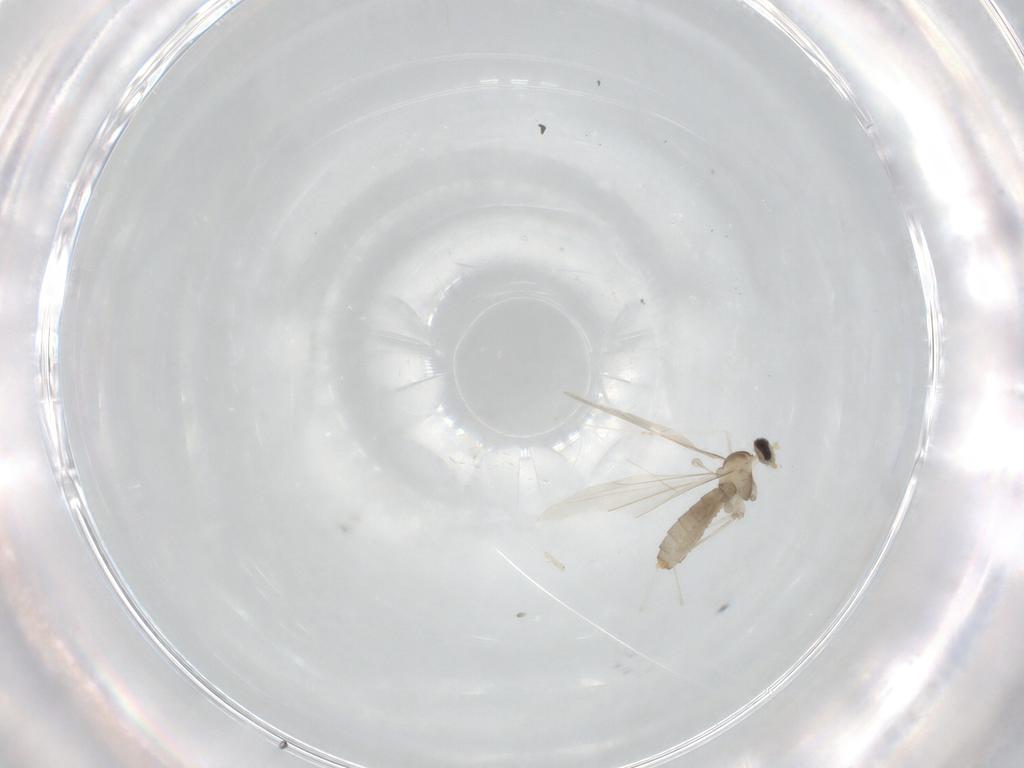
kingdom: Animalia
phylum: Arthropoda
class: Insecta
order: Diptera
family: Cecidomyiidae
